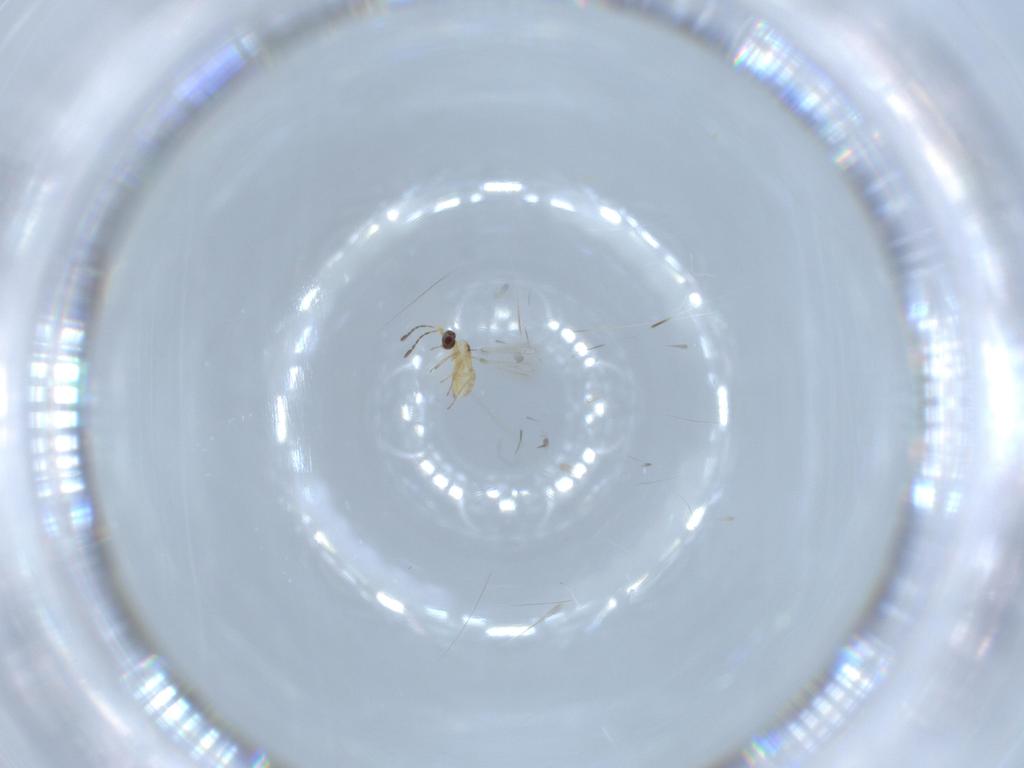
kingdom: Animalia
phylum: Arthropoda
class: Insecta
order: Hymenoptera
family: Mymaridae
